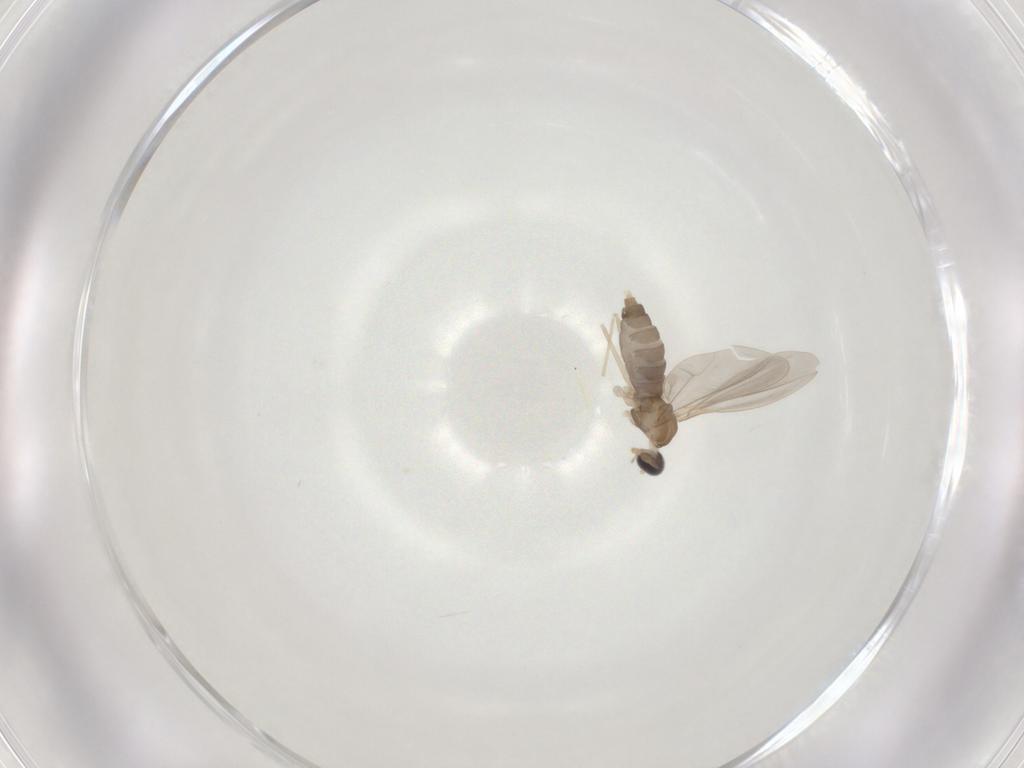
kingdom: Animalia
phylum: Arthropoda
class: Insecta
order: Diptera
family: Cecidomyiidae
